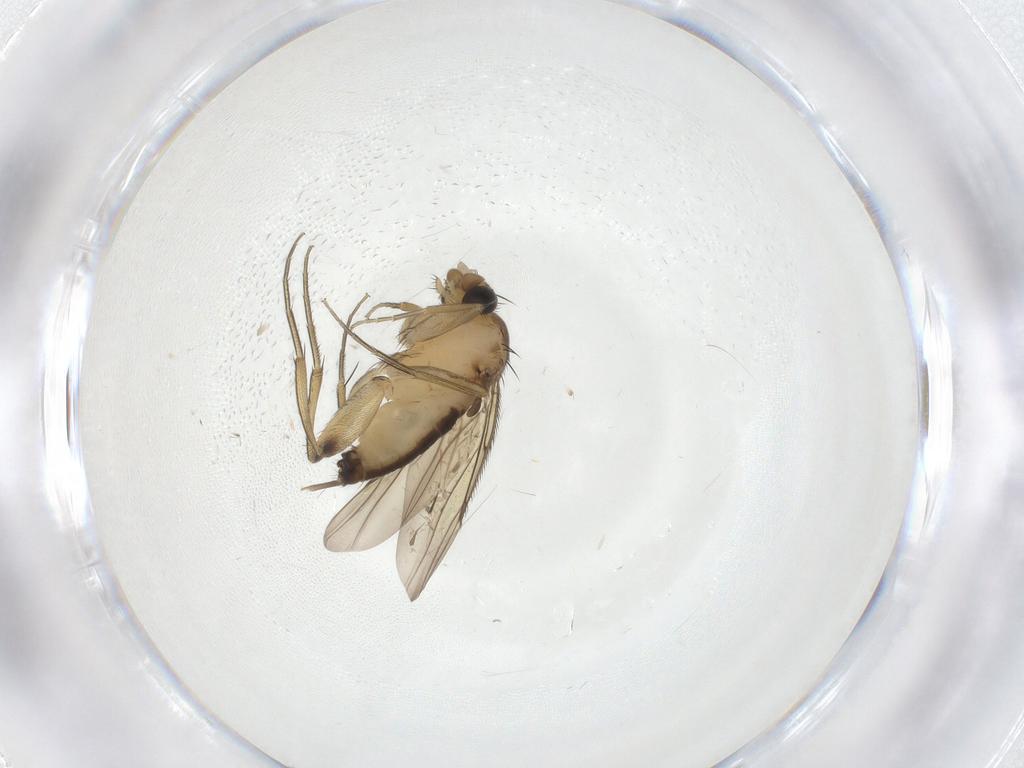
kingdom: Animalia
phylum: Arthropoda
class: Insecta
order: Diptera
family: Phoridae
